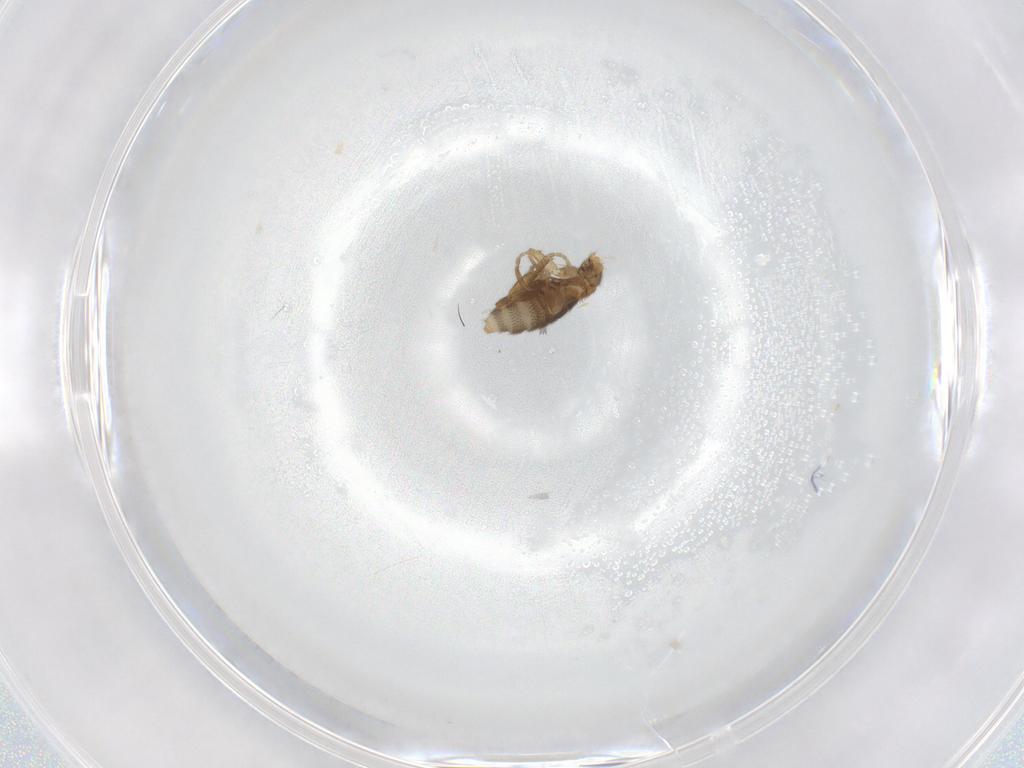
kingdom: Animalia
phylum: Arthropoda
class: Insecta
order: Diptera
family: Cecidomyiidae
